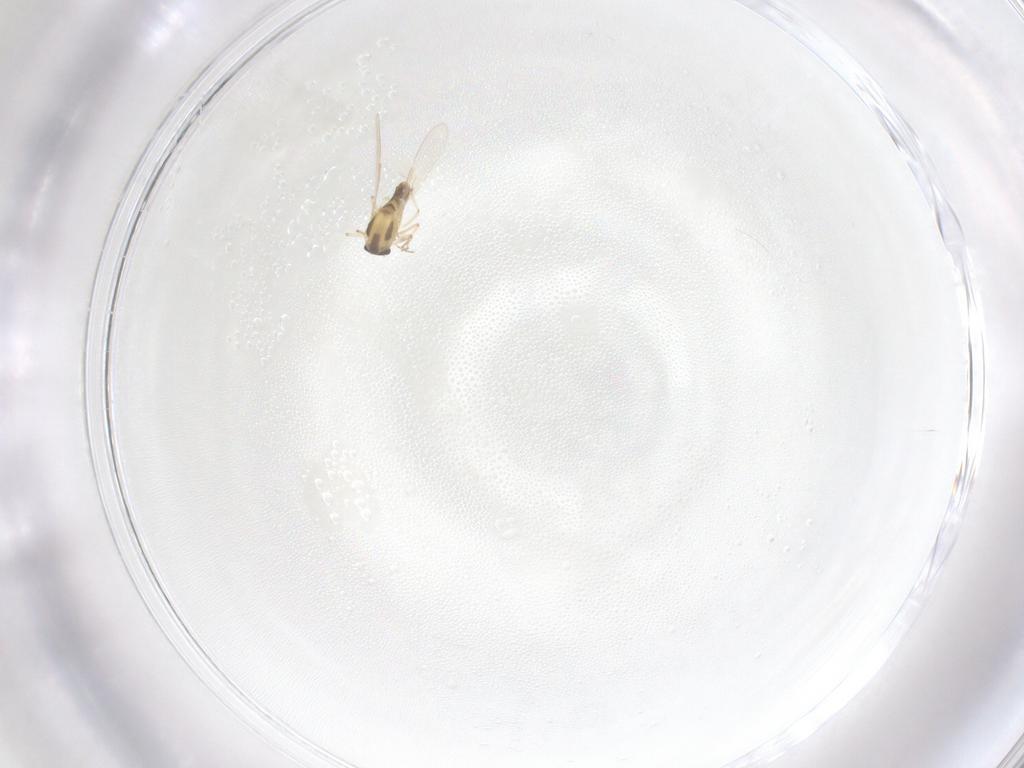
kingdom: Animalia
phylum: Arthropoda
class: Insecta
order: Diptera
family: Chironomidae
